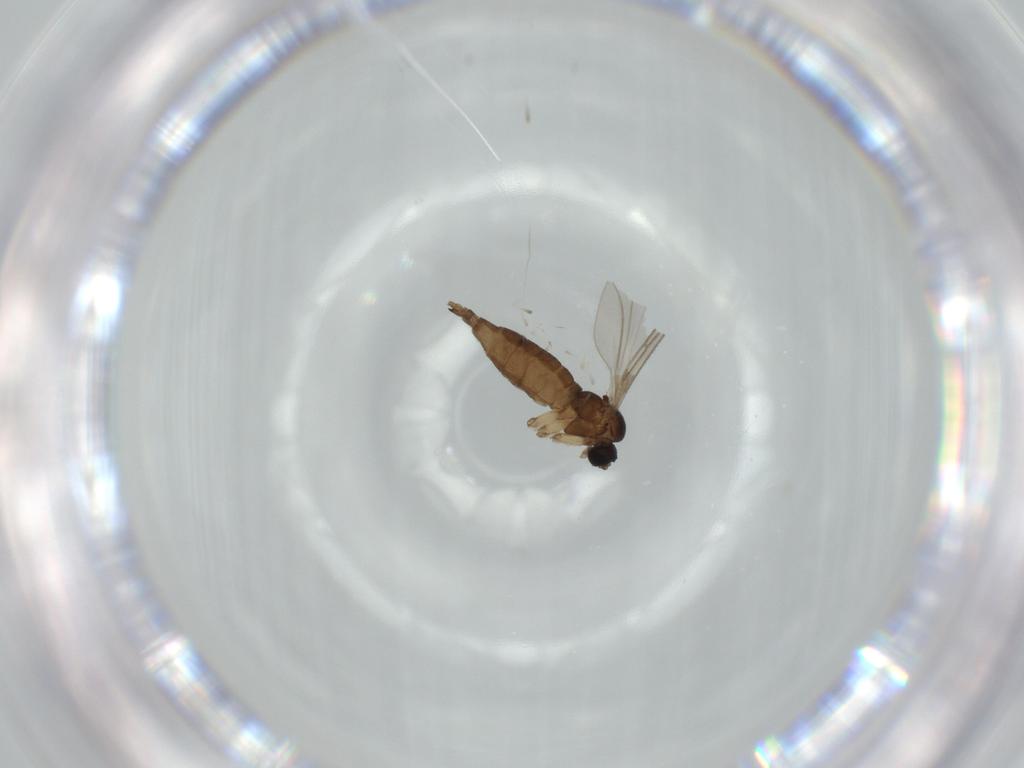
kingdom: Animalia
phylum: Arthropoda
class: Insecta
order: Diptera
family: Sciaridae
